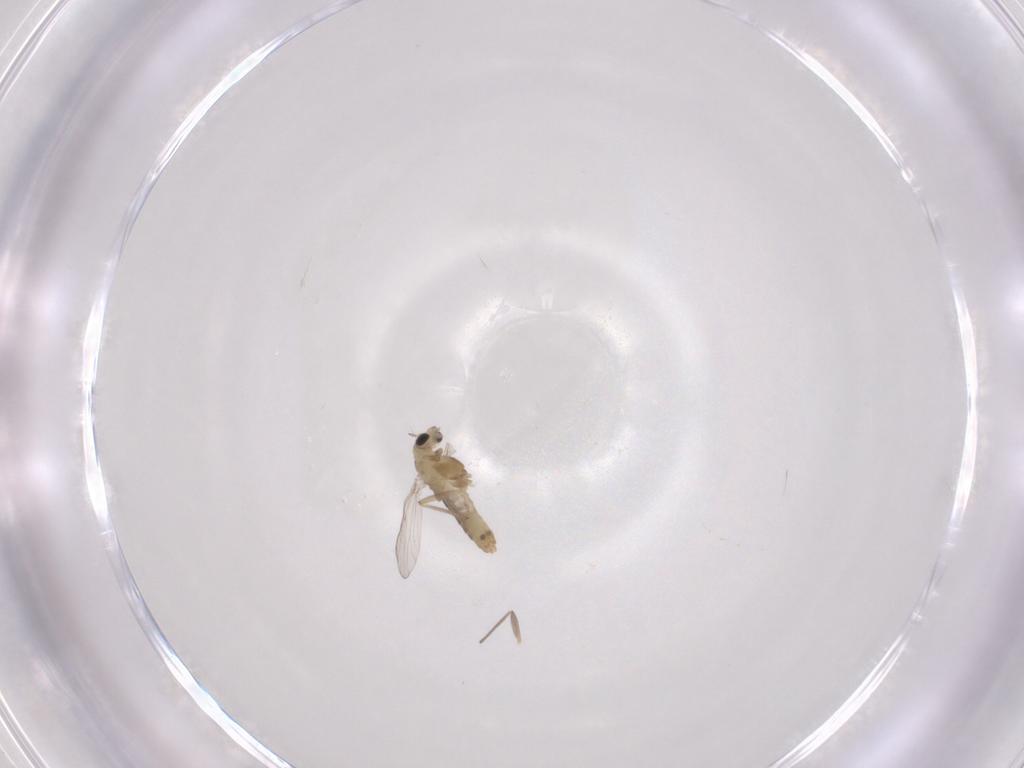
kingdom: Animalia
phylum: Arthropoda
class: Insecta
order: Diptera
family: Chironomidae
